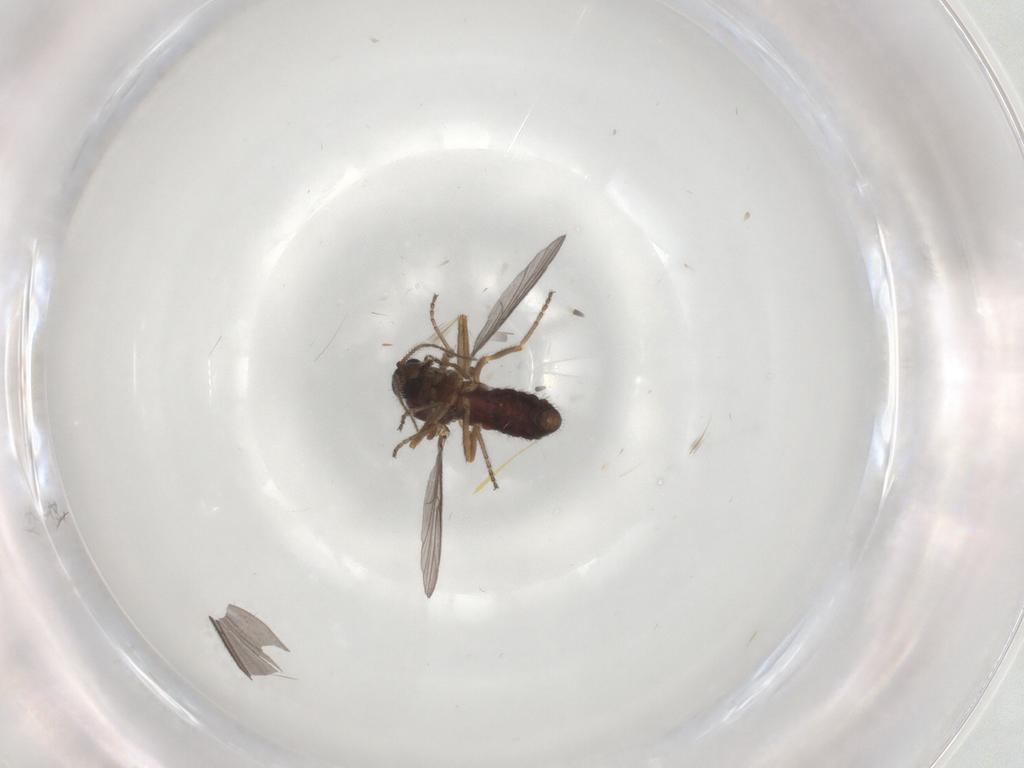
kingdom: Animalia
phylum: Arthropoda
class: Insecta
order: Diptera
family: Ceratopogonidae
